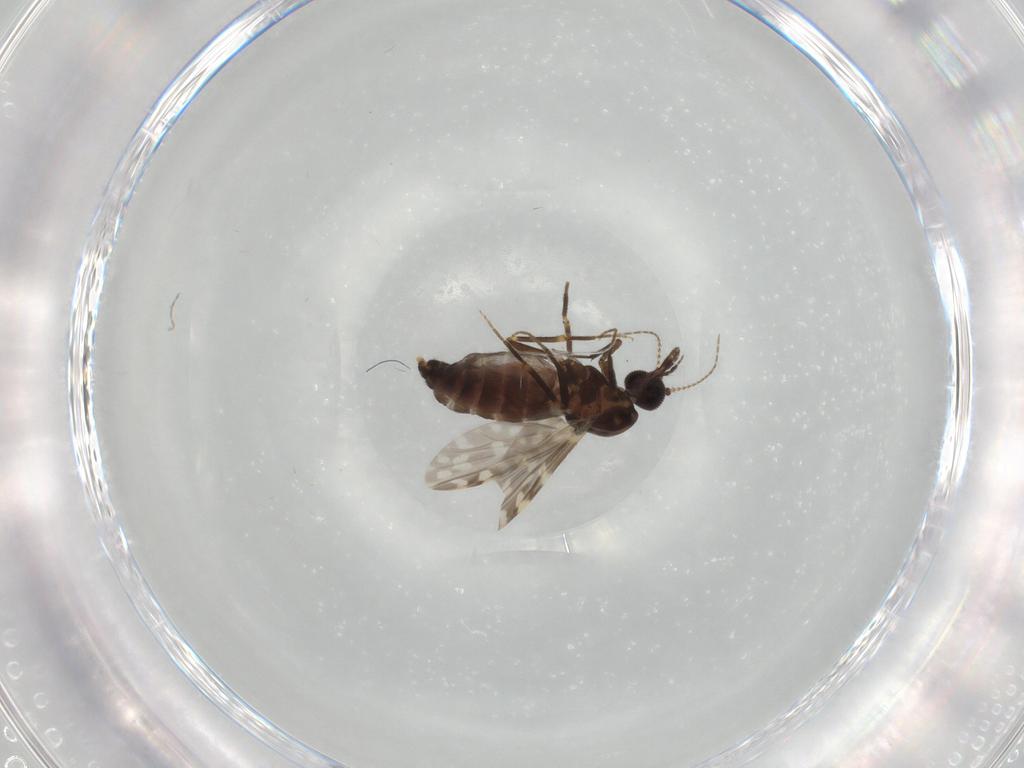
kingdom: Animalia
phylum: Arthropoda
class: Insecta
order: Diptera
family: Ceratopogonidae
